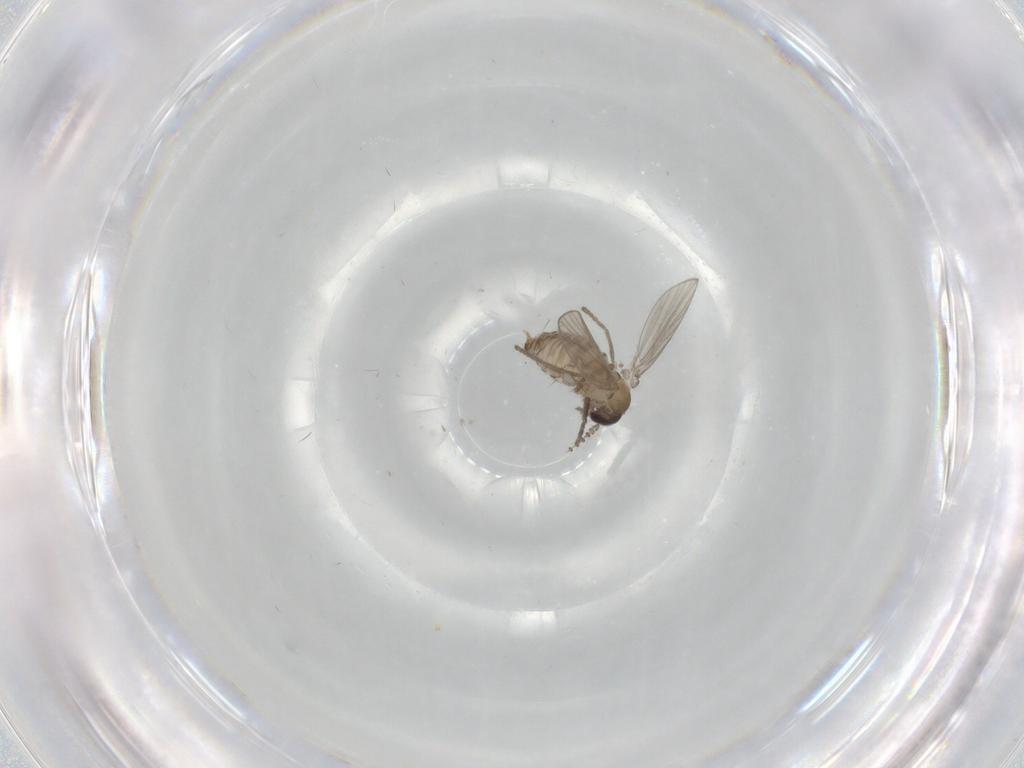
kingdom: Animalia
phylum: Arthropoda
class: Insecta
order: Diptera
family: Psychodidae
